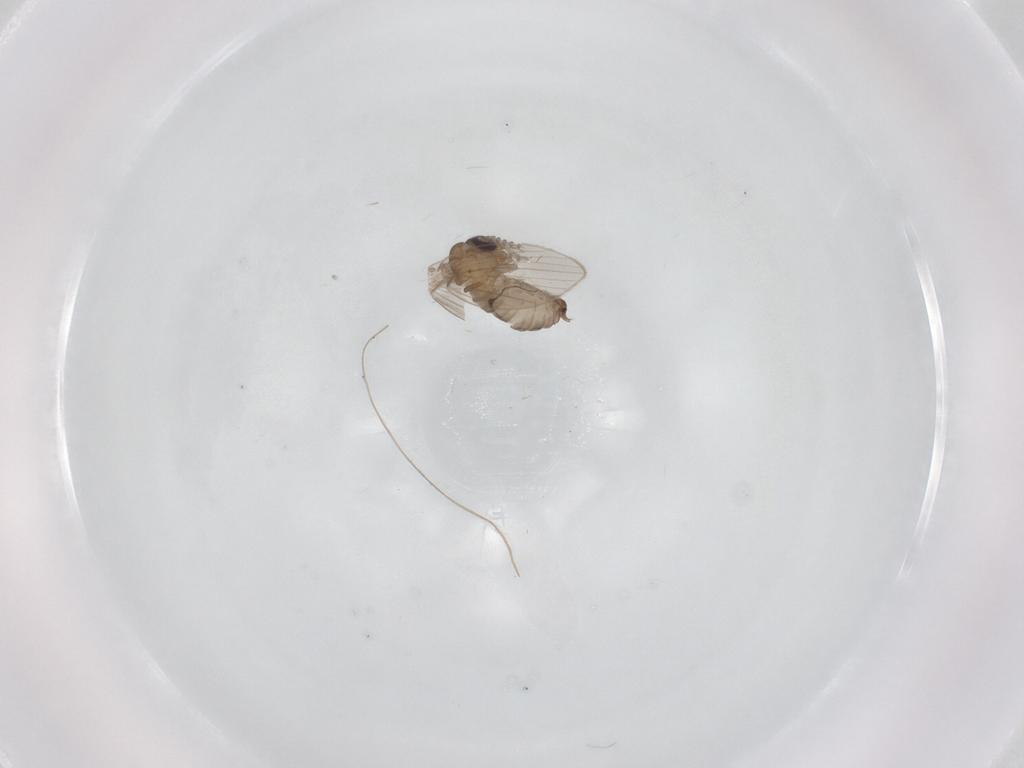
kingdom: Animalia
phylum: Arthropoda
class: Insecta
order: Diptera
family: Psychodidae
